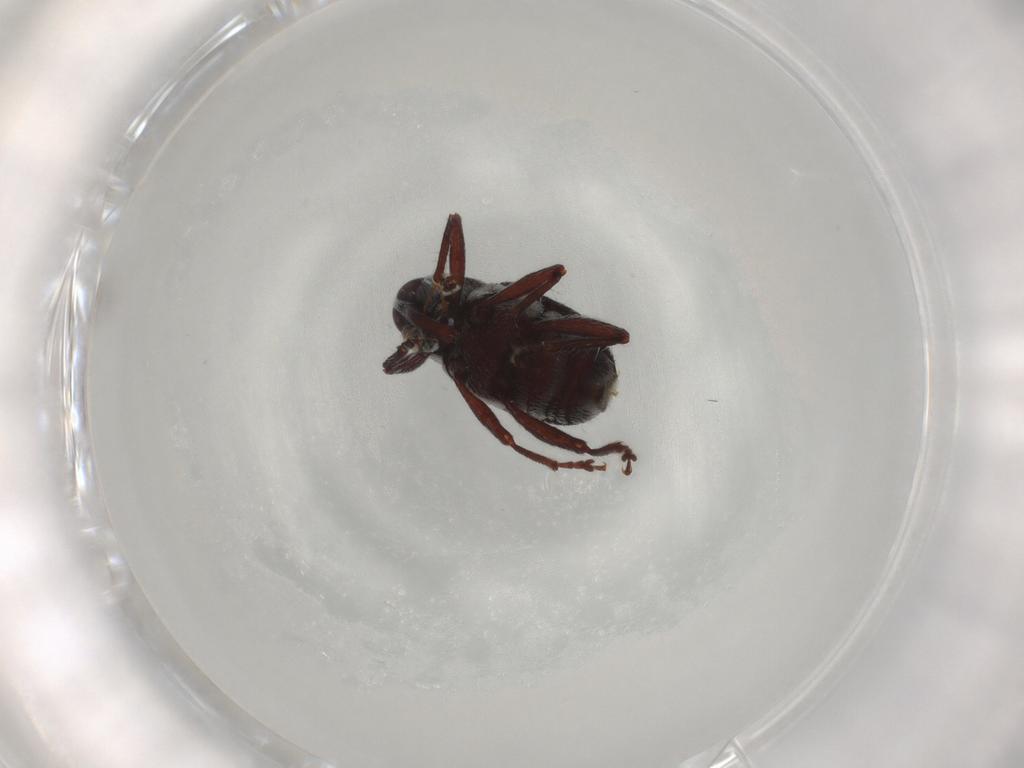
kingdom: Animalia
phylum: Arthropoda
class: Insecta
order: Coleoptera
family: Curculionidae
